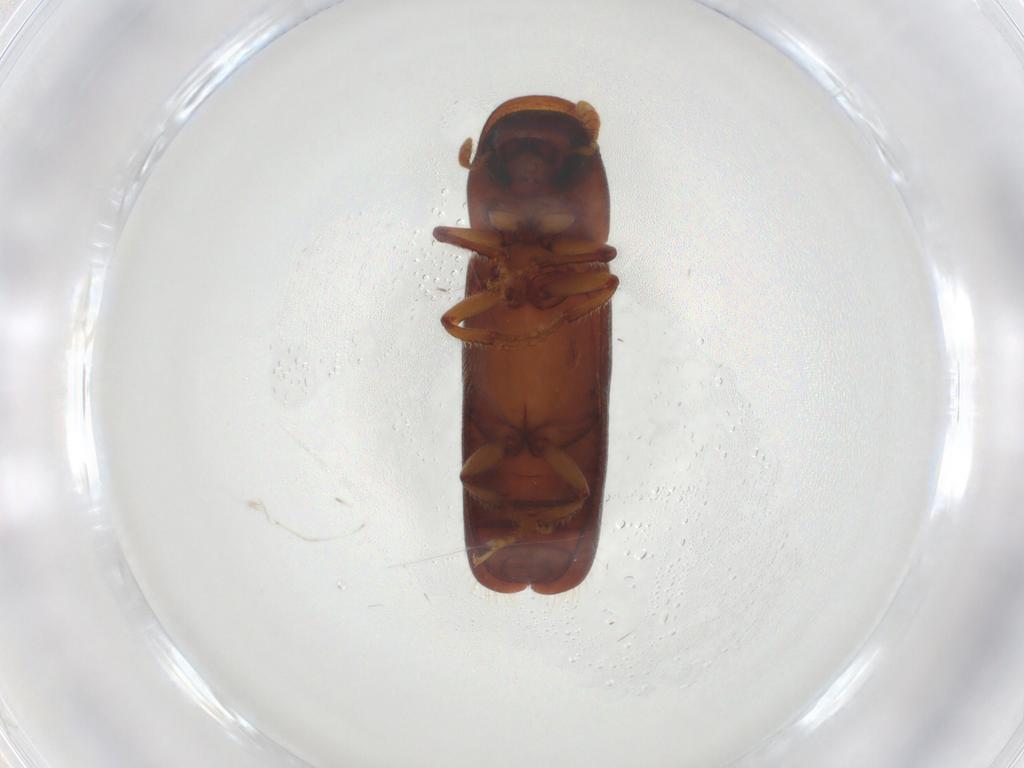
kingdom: Animalia
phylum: Arthropoda
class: Insecta
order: Coleoptera
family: Curculionidae
